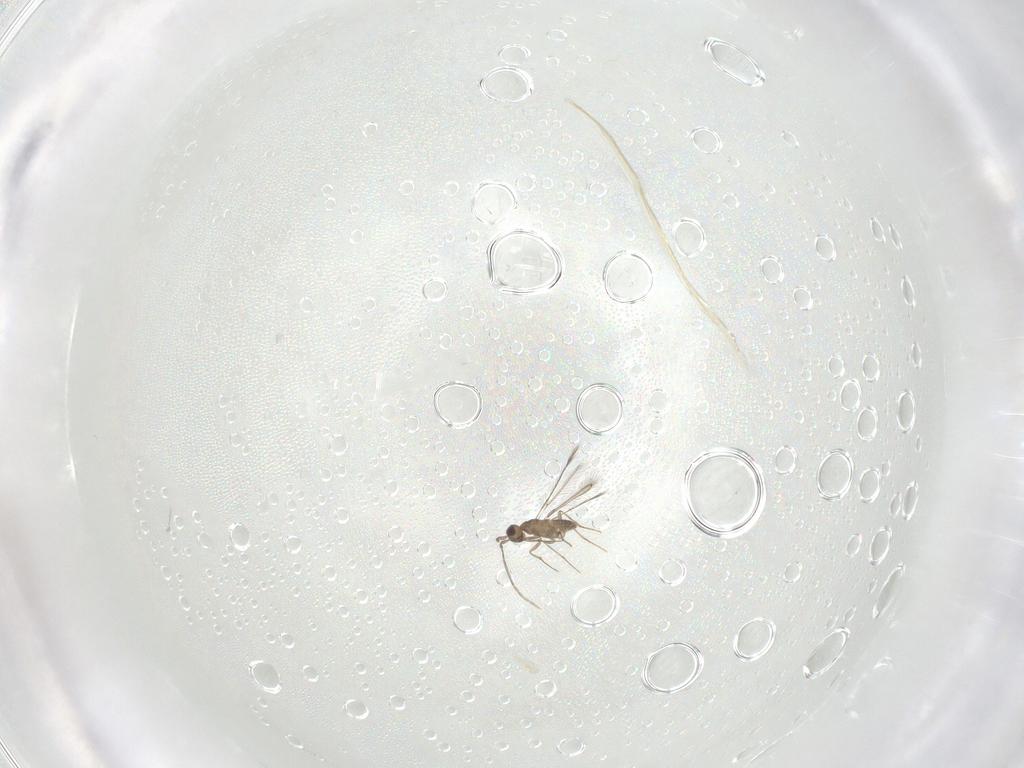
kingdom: Animalia
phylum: Arthropoda
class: Insecta
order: Hymenoptera
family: Mymaridae
